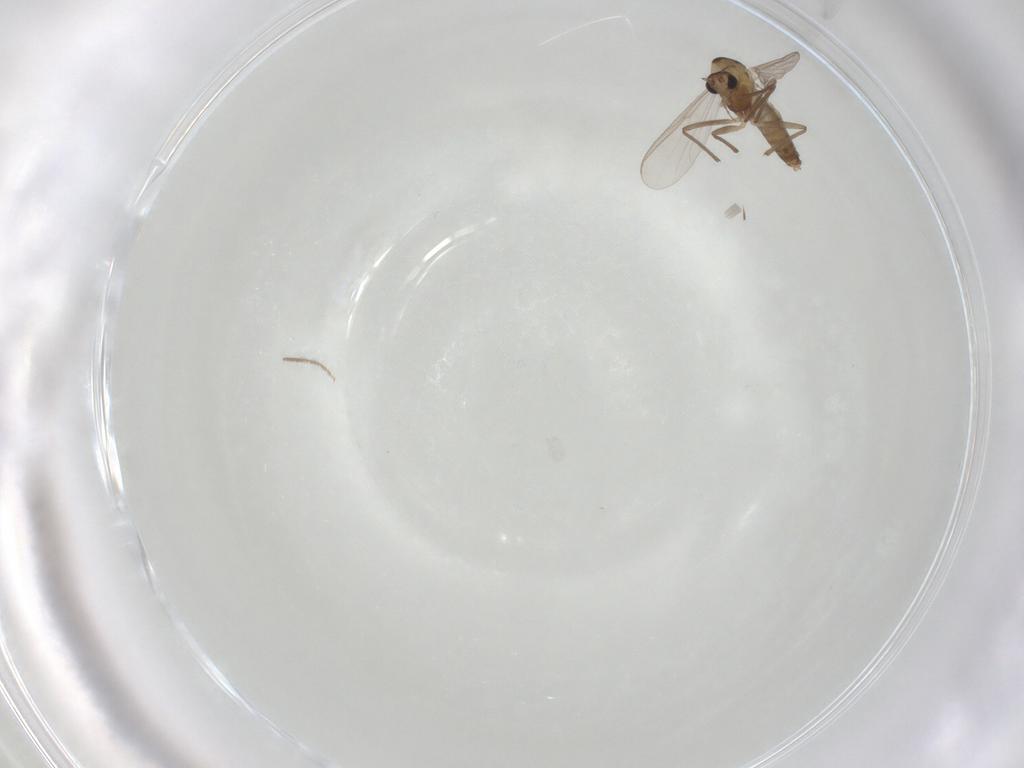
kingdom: Animalia
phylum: Arthropoda
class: Insecta
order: Diptera
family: Chironomidae
